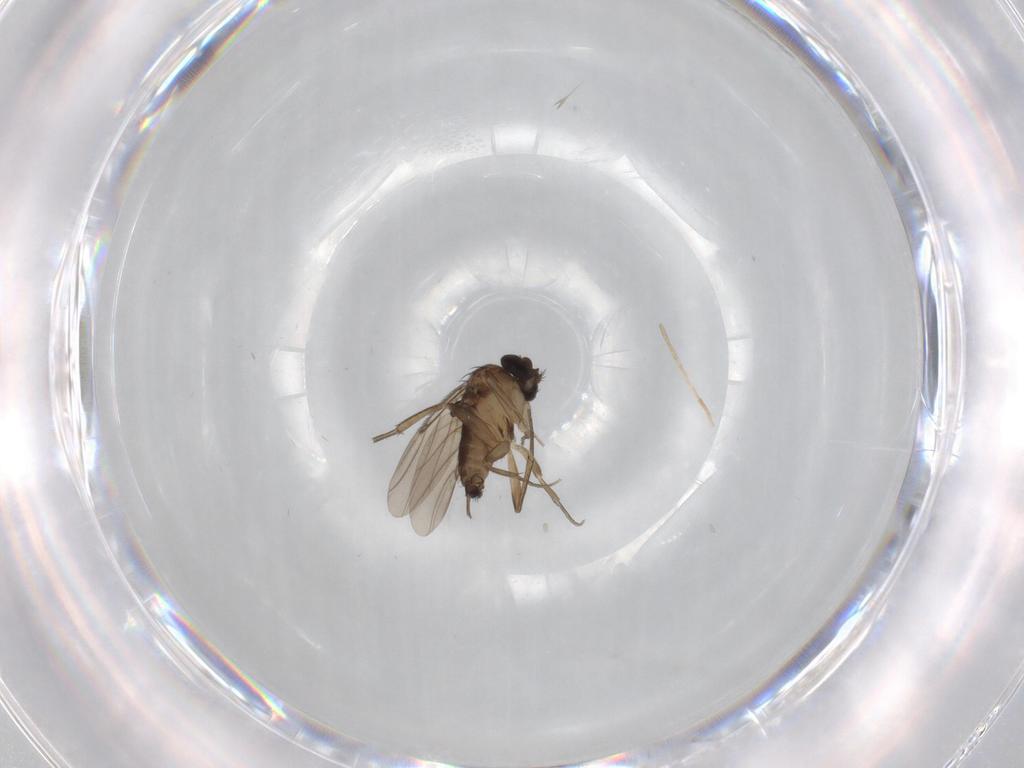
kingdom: Animalia
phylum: Arthropoda
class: Insecta
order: Diptera
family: Phoridae
